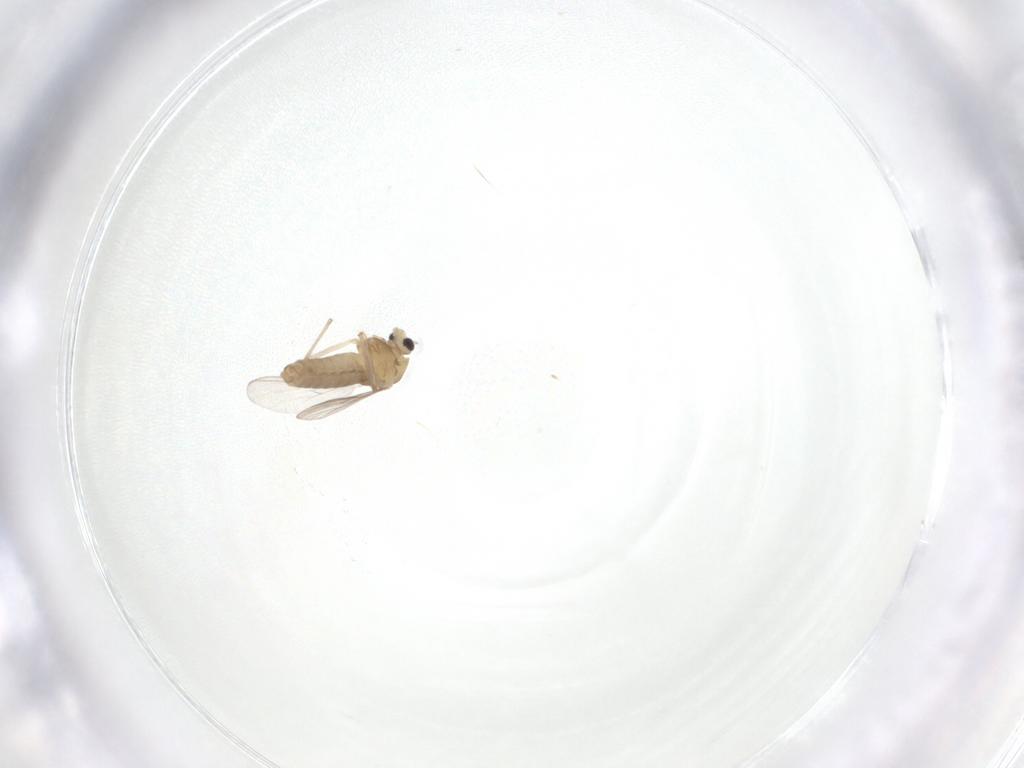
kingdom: Animalia
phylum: Arthropoda
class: Insecta
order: Diptera
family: Chironomidae
